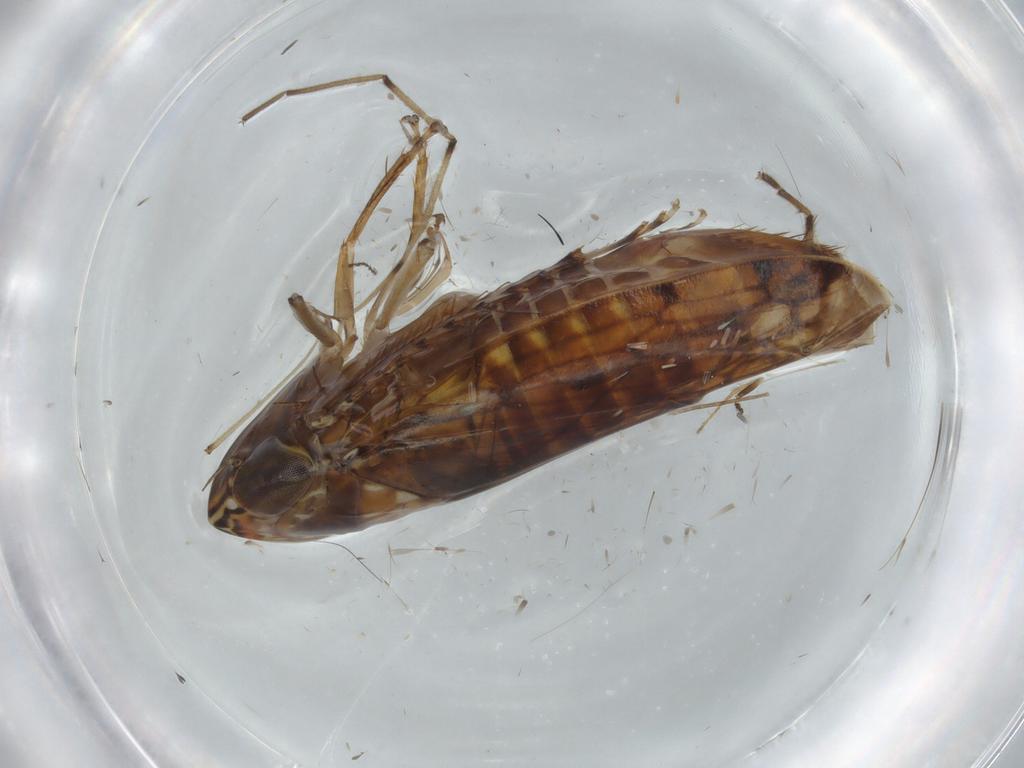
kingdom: Animalia
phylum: Arthropoda
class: Insecta
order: Hemiptera
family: Cicadellidae
